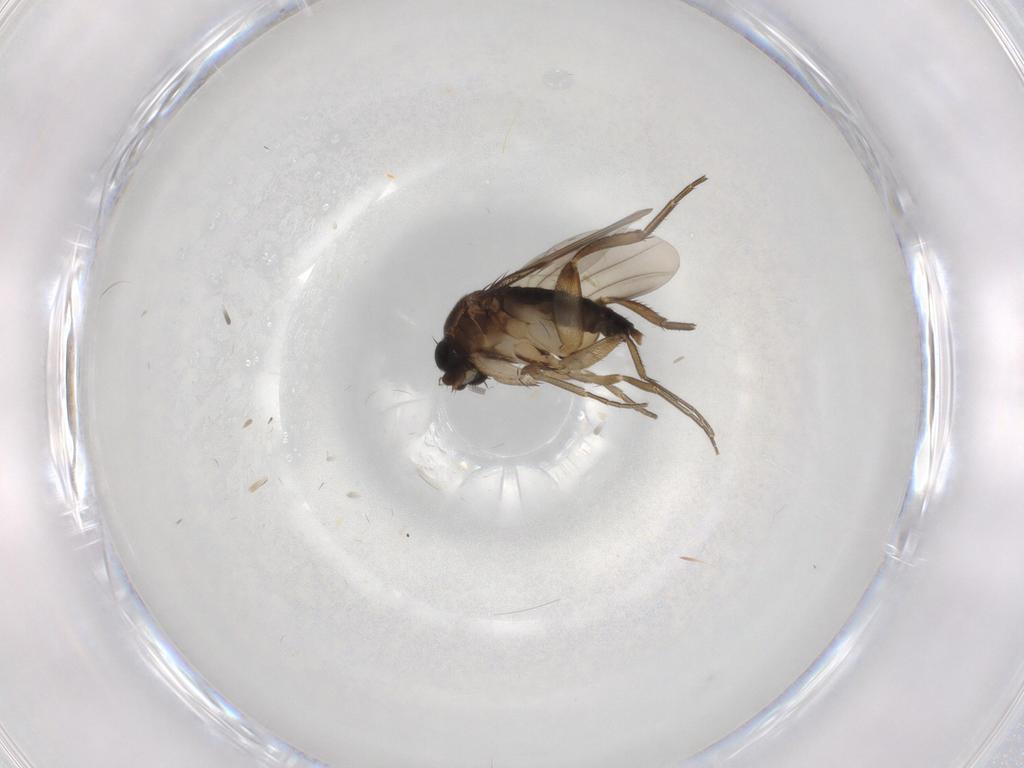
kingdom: Animalia
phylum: Arthropoda
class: Insecta
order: Diptera
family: Phoridae
